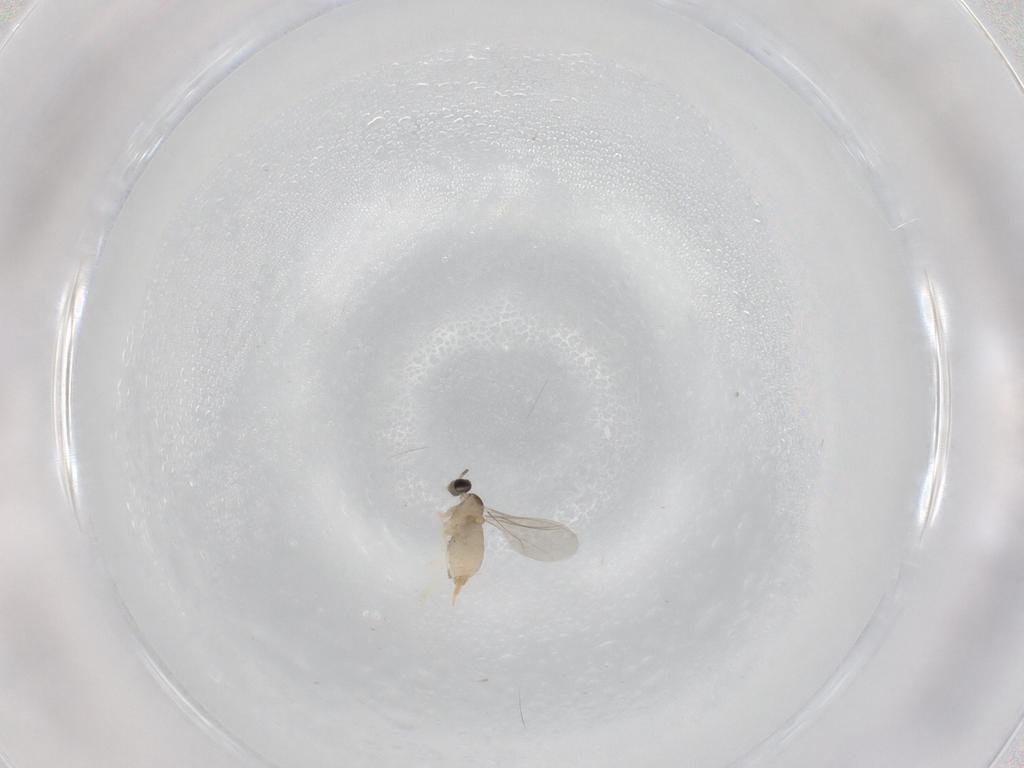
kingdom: Animalia
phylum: Arthropoda
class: Insecta
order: Diptera
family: Cecidomyiidae
